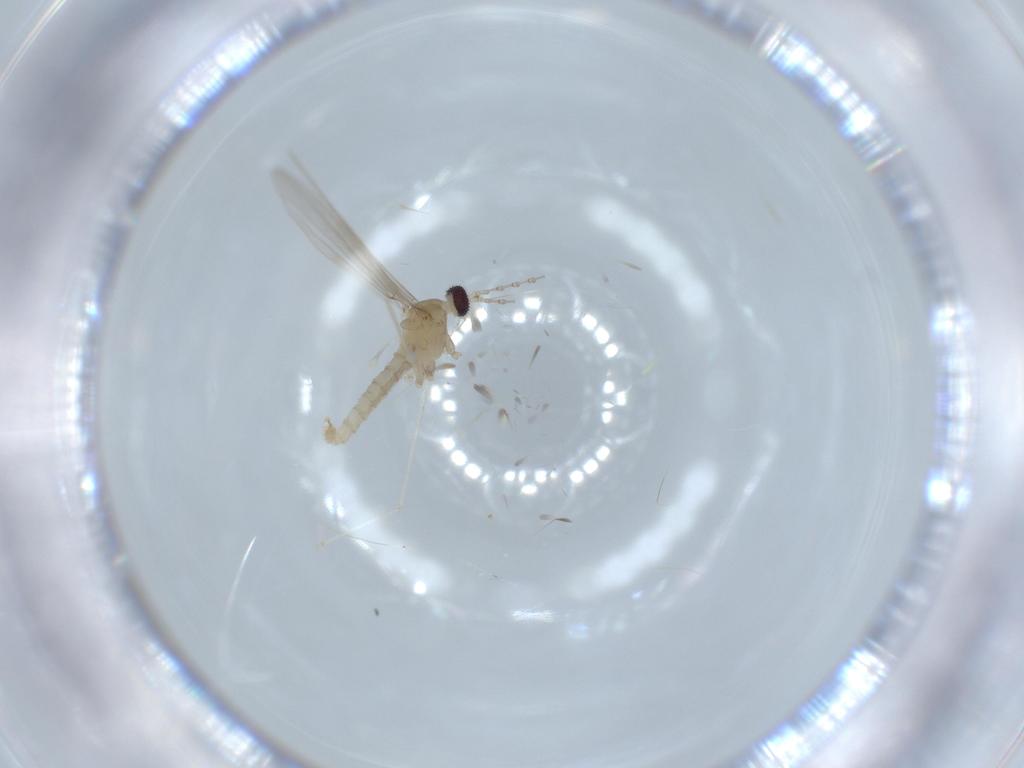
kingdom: Animalia
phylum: Arthropoda
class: Insecta
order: Diptera
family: Cecidomyiidae
